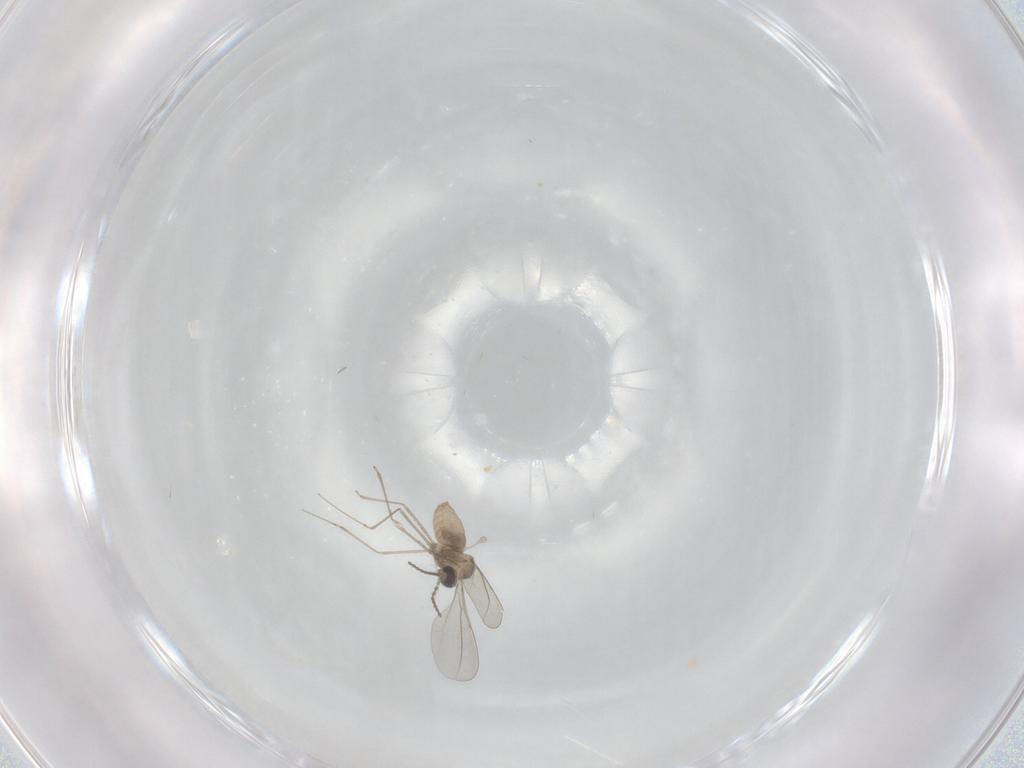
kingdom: Animalia
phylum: Arthropoda
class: Insecta
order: Diptera
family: Cecidomyiidae
